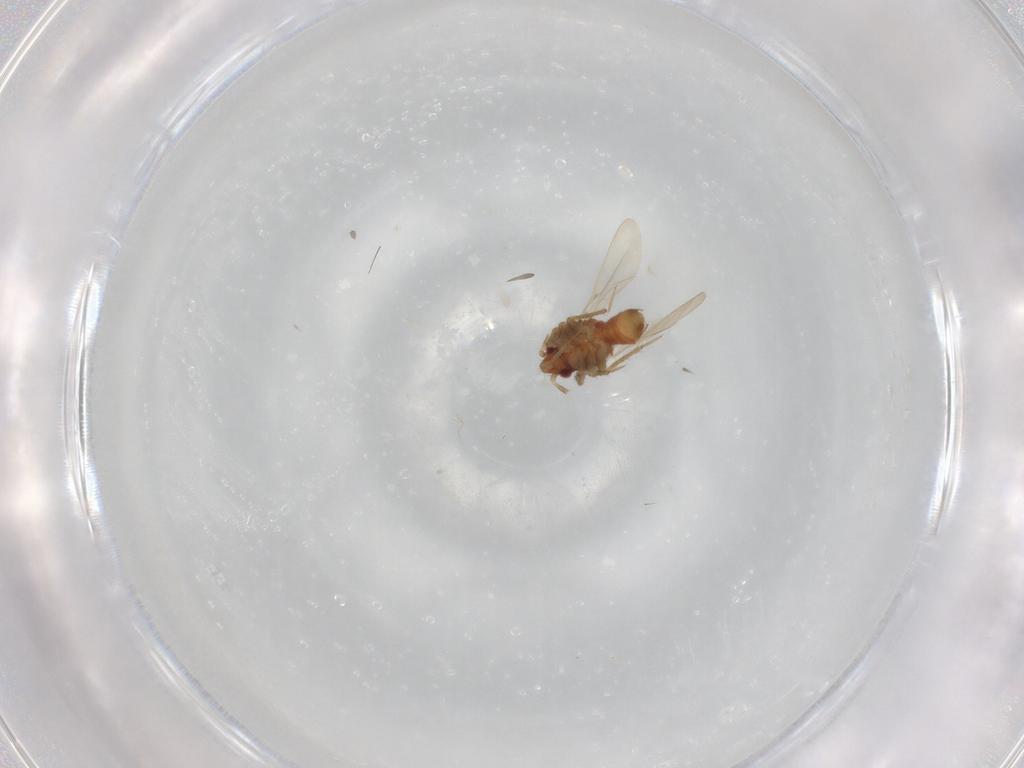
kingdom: Animalia
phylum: Arthropoda
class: Insecta
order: Hemiptera
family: Ceratocombidae
